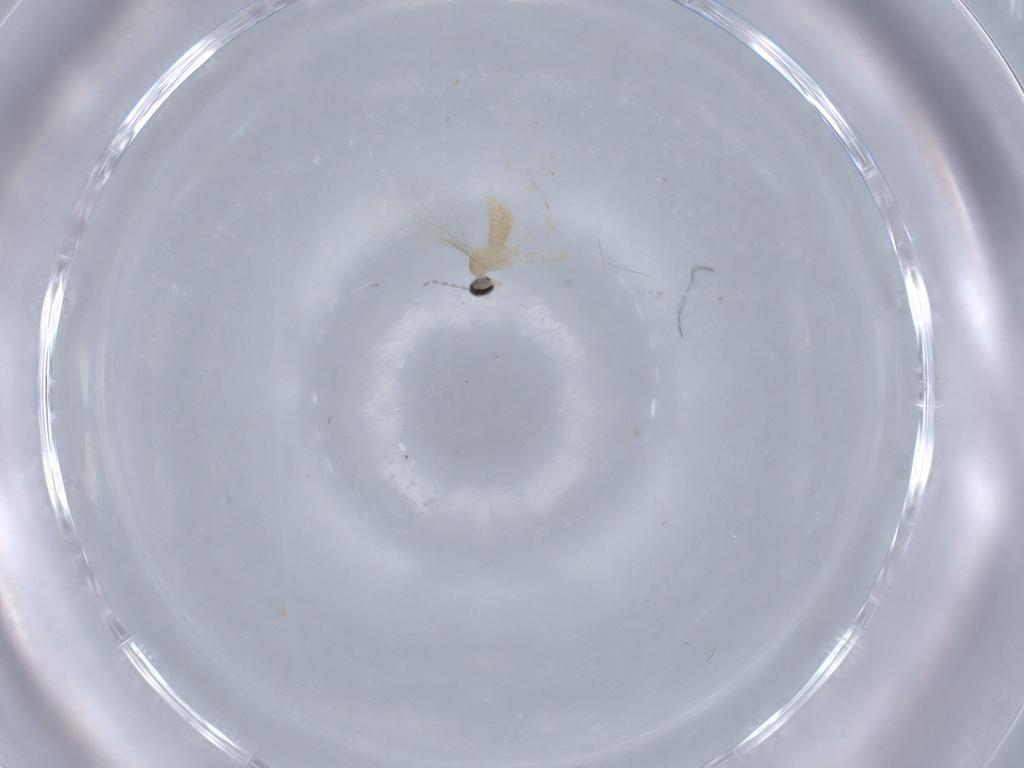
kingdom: Animalia
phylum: Arthropoda
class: Insecta
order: Diptera
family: Cecidomyiidae
